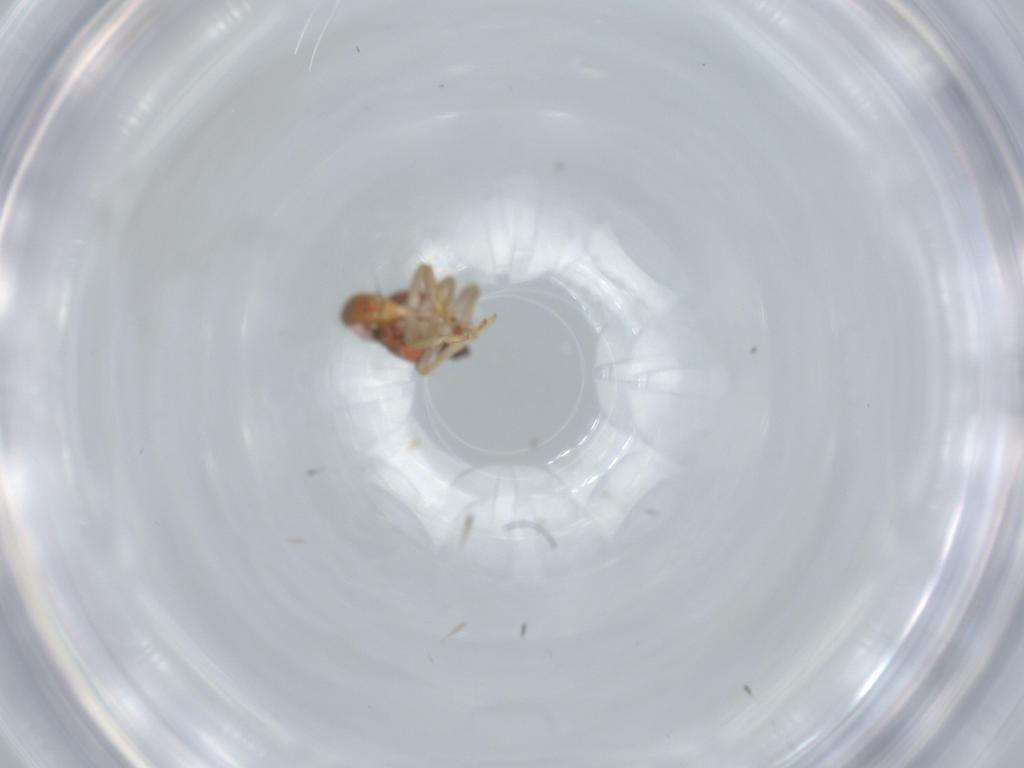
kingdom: Animalia
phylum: Arthropoda
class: Insecta
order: Hemiptera
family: Issidae
